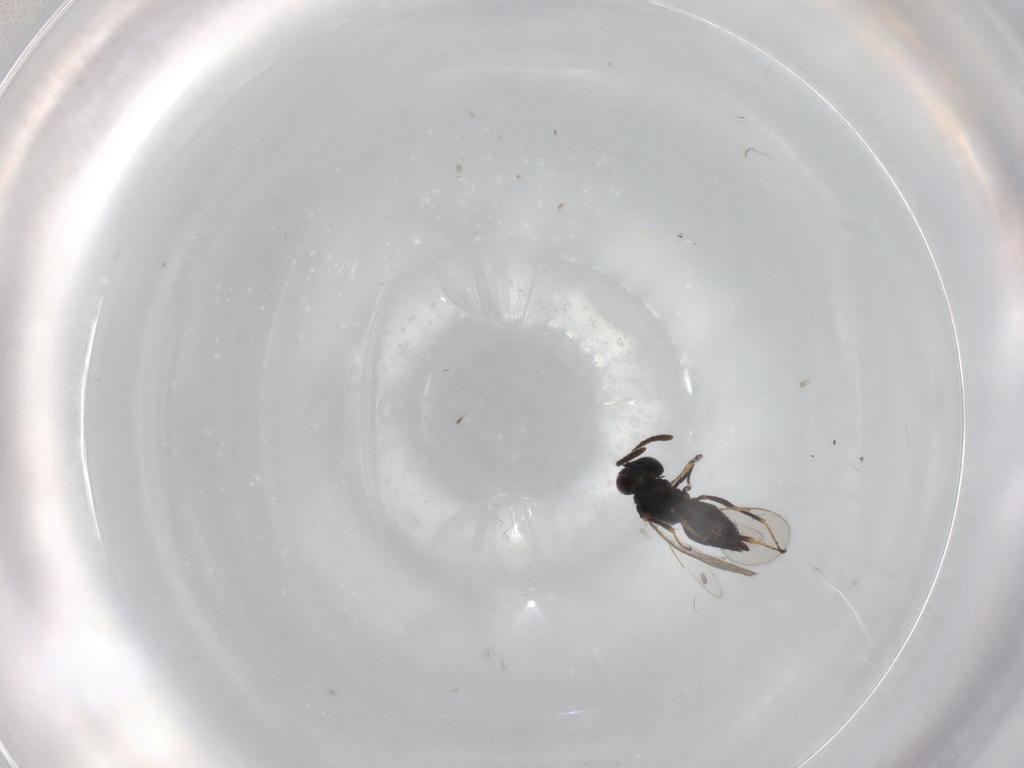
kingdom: Animalia
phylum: Arthropoda
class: Insecta
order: Hymenoptera
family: Pteromalidae
